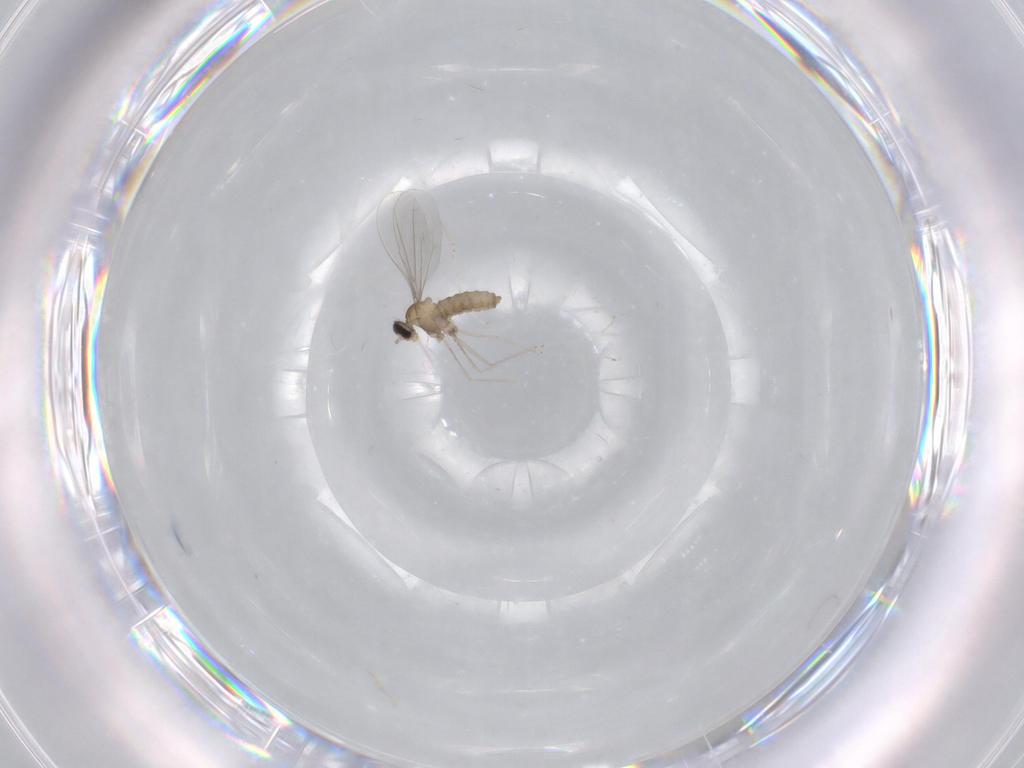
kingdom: Animalia
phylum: Arthropoda
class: Insecta
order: Diptera
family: Cecidomyiidae
